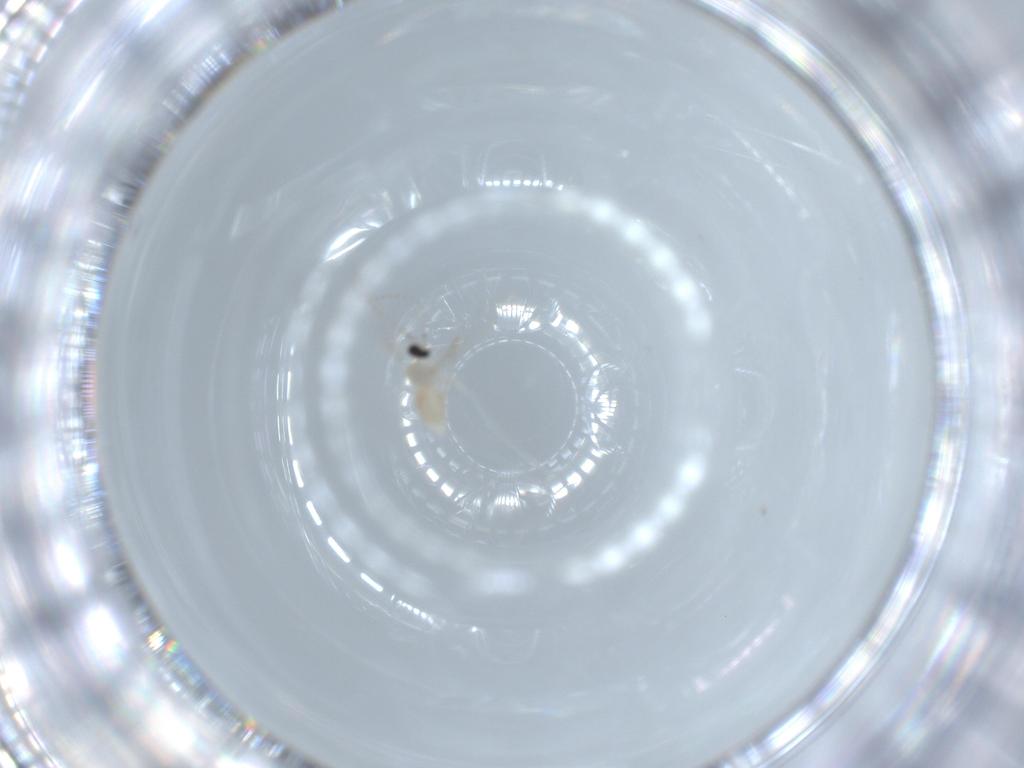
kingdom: Animalia
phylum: Arthropoda
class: Insecta
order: Diptera
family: Cecidomyiidae
